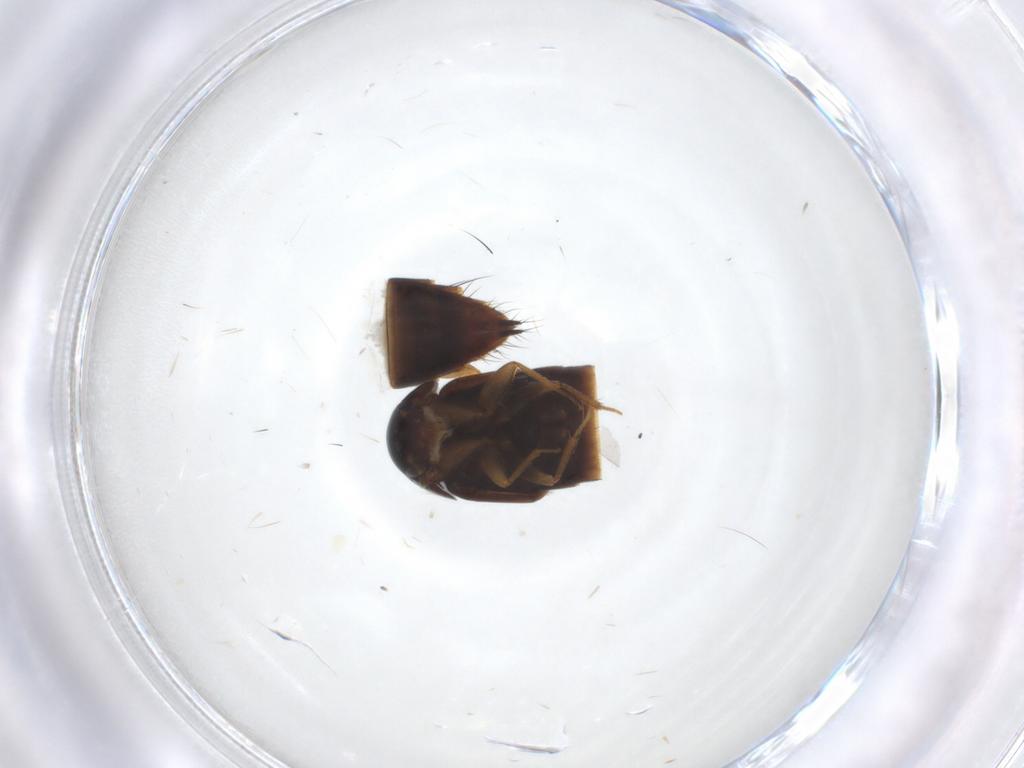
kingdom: Animalia
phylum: Arthropoda
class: Insecta
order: Coleoptera
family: Staphylinidae
